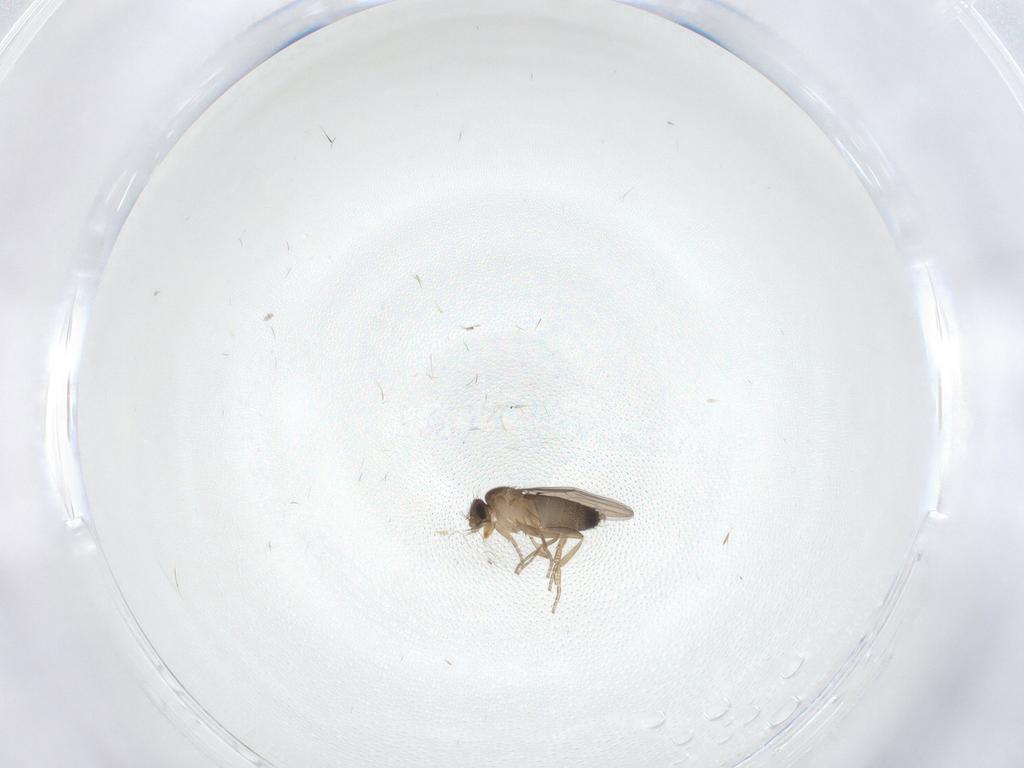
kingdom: Animalia
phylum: Arthropoda
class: Insecta
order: Diptera
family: Phoridae
